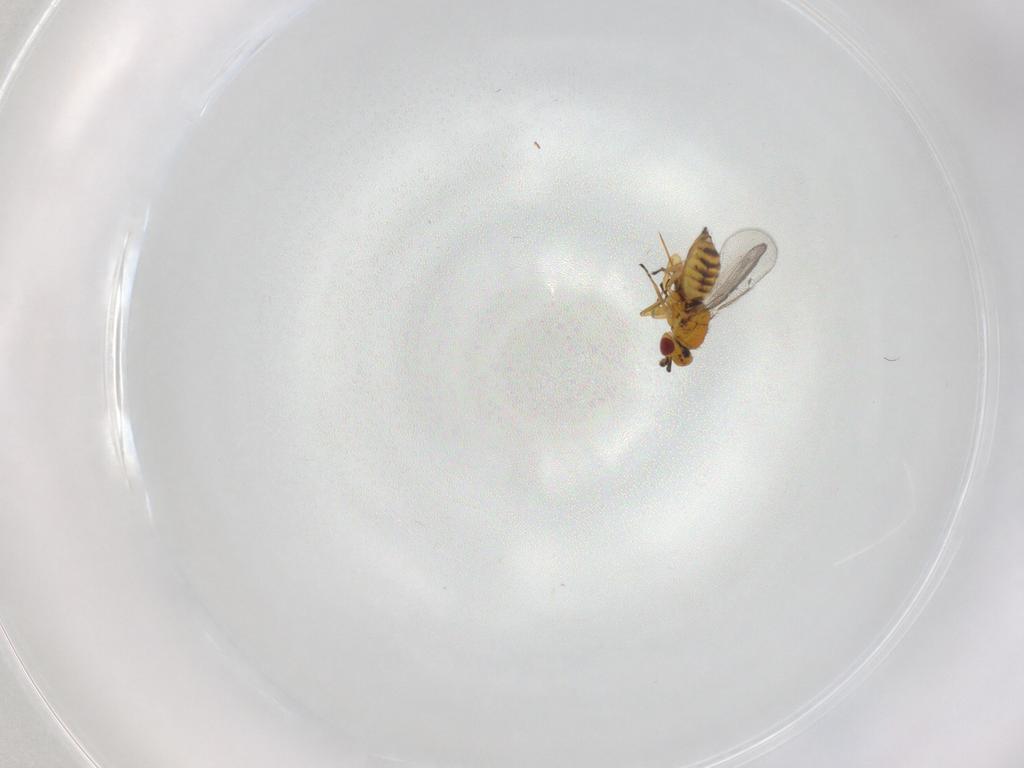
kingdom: Animalia
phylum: Arthropoda
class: Insecta
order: Hymenoptera
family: Eulophidae
